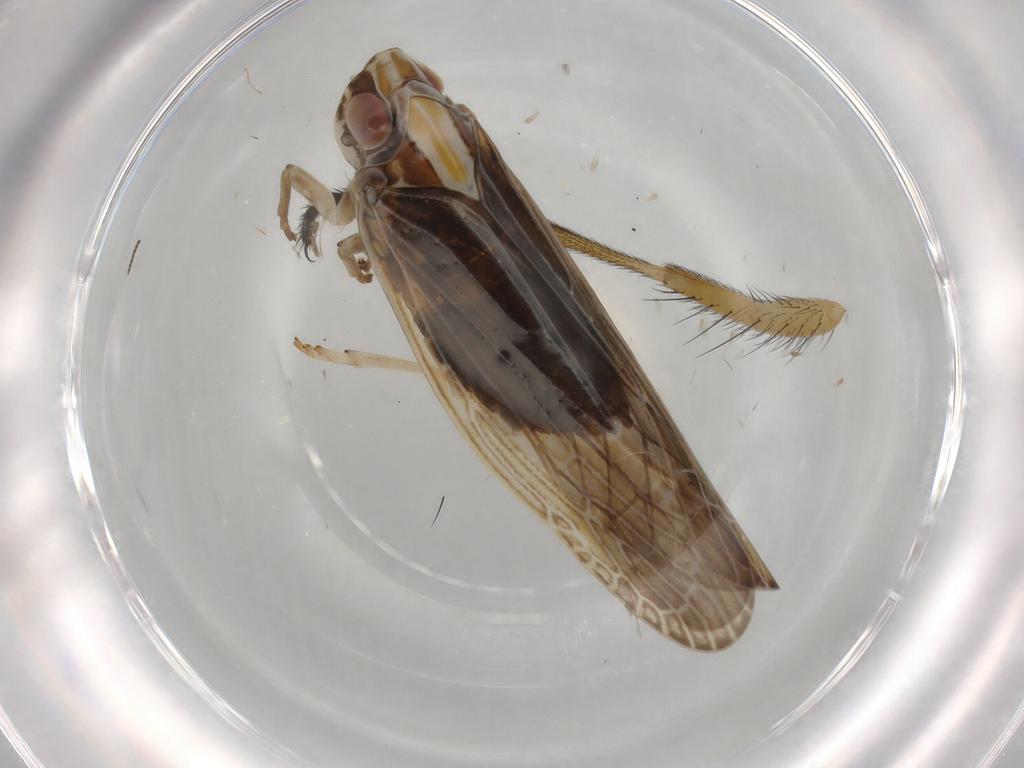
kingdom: Animalia
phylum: Arthropoda
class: Insecta
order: Hemiptera
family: Achilidae
